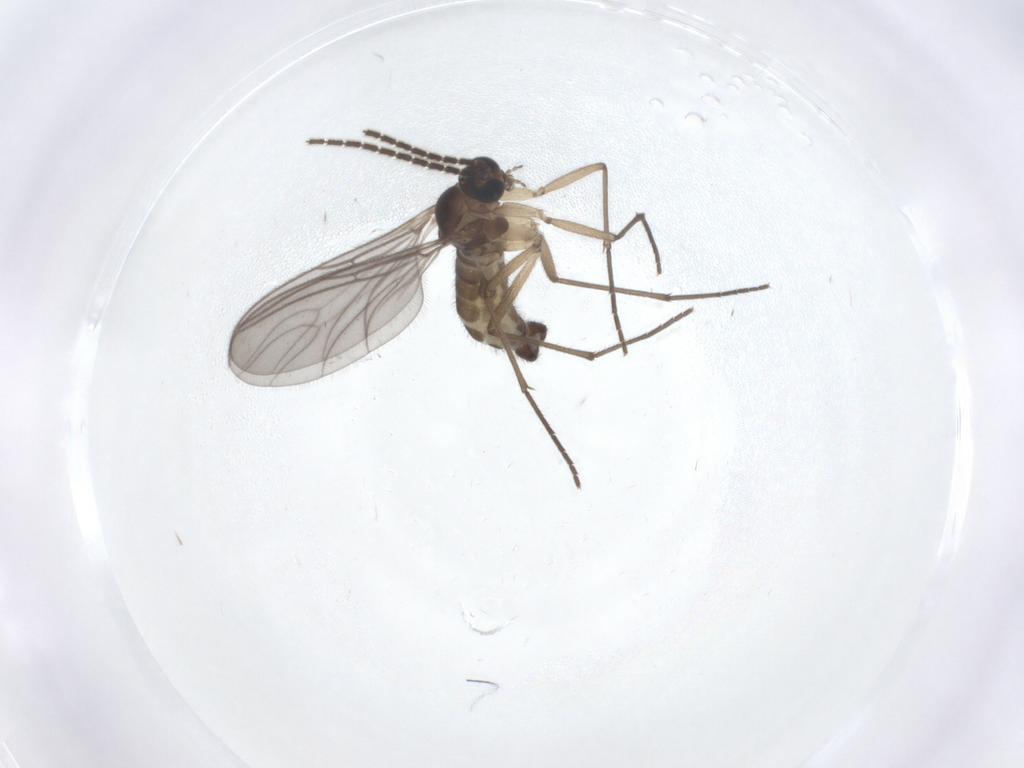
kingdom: Animalia
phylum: Arthropoda
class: Insecta
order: Diptera
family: Sciaridae
